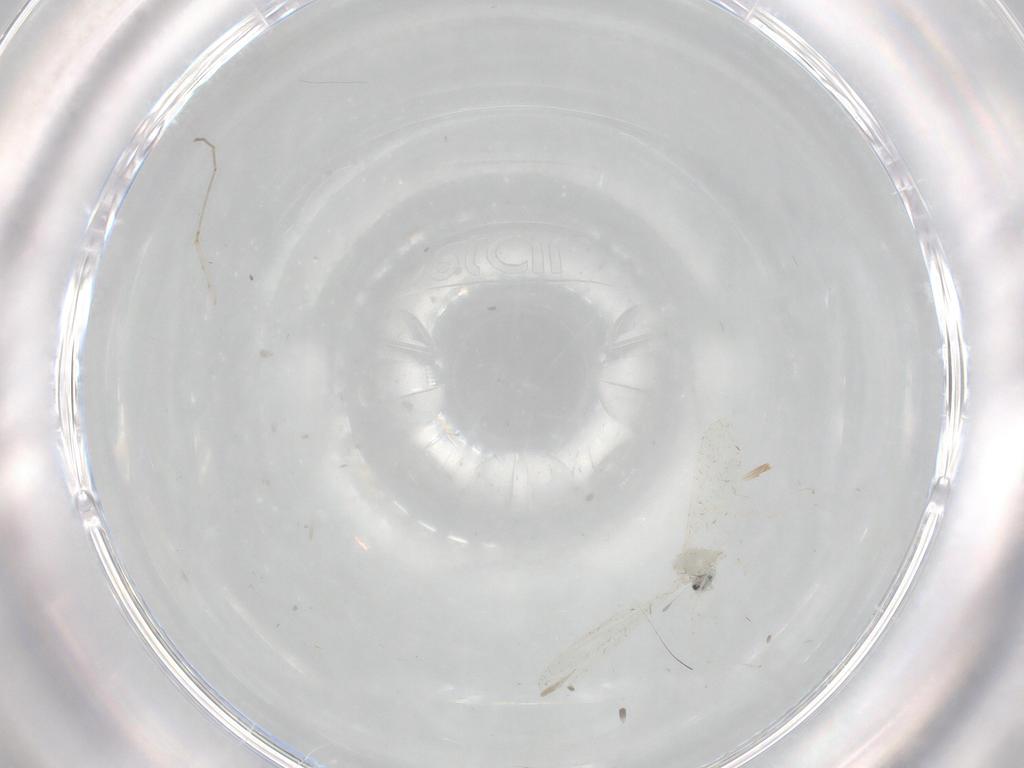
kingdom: Animalia
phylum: Arthropoda
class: Insecta
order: Diptera
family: Cecidomyiidae
